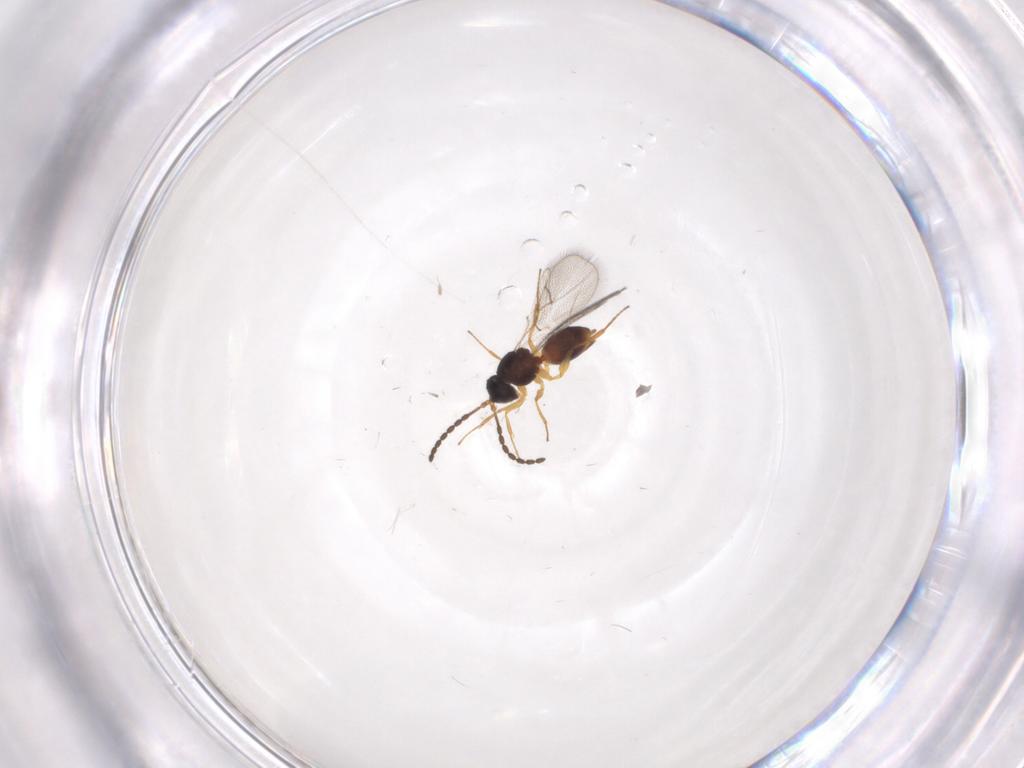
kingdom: Animalia
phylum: Arthropoda
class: Insecta
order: Hymenoptera
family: Figitidae
